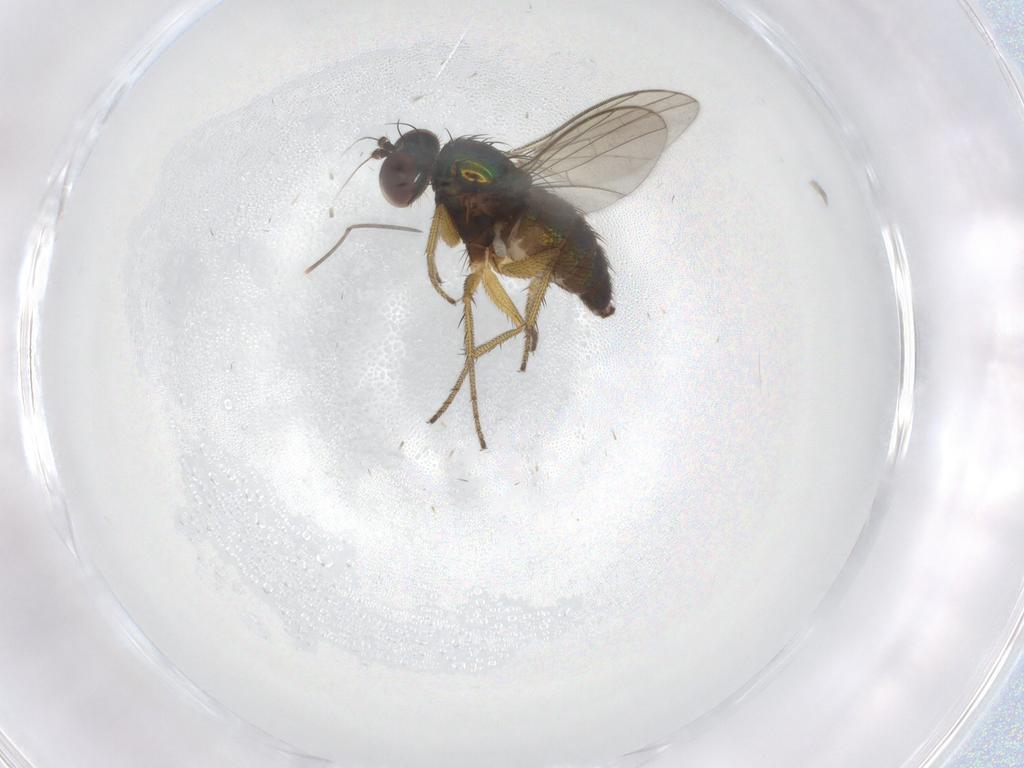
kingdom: Animalia
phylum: Arthropoda
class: Insecta
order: Diptera
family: Dolichopodidae
